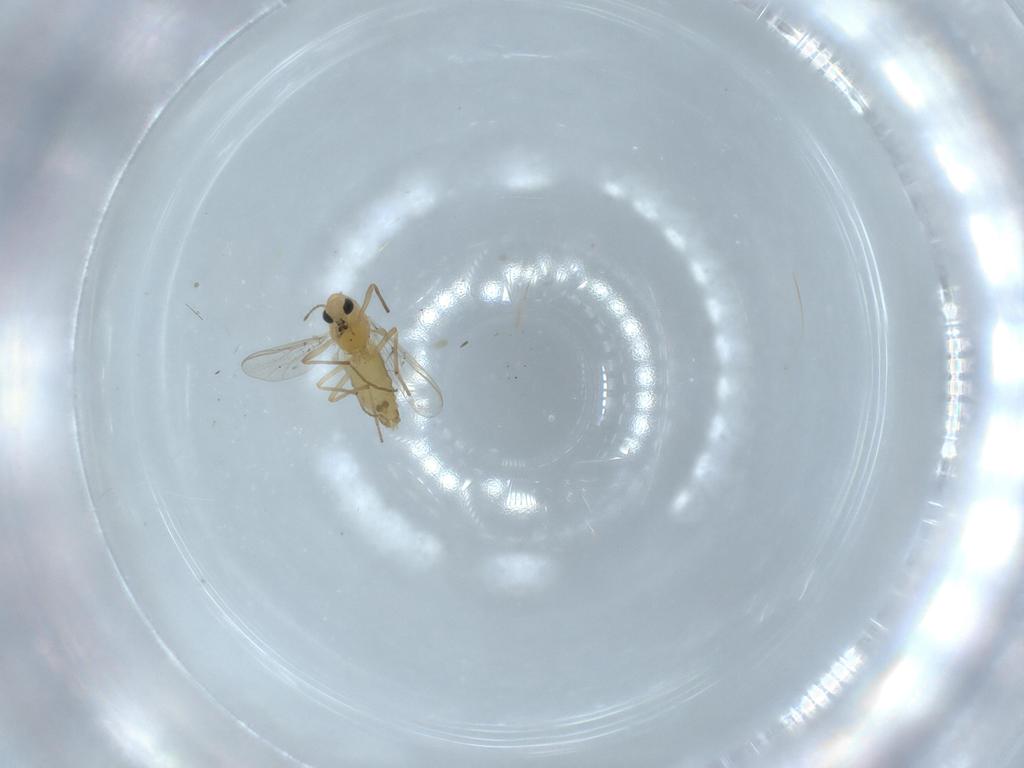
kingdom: Animalia
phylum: Arthropoda
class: Insecta
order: Diptera
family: Chironomidae
